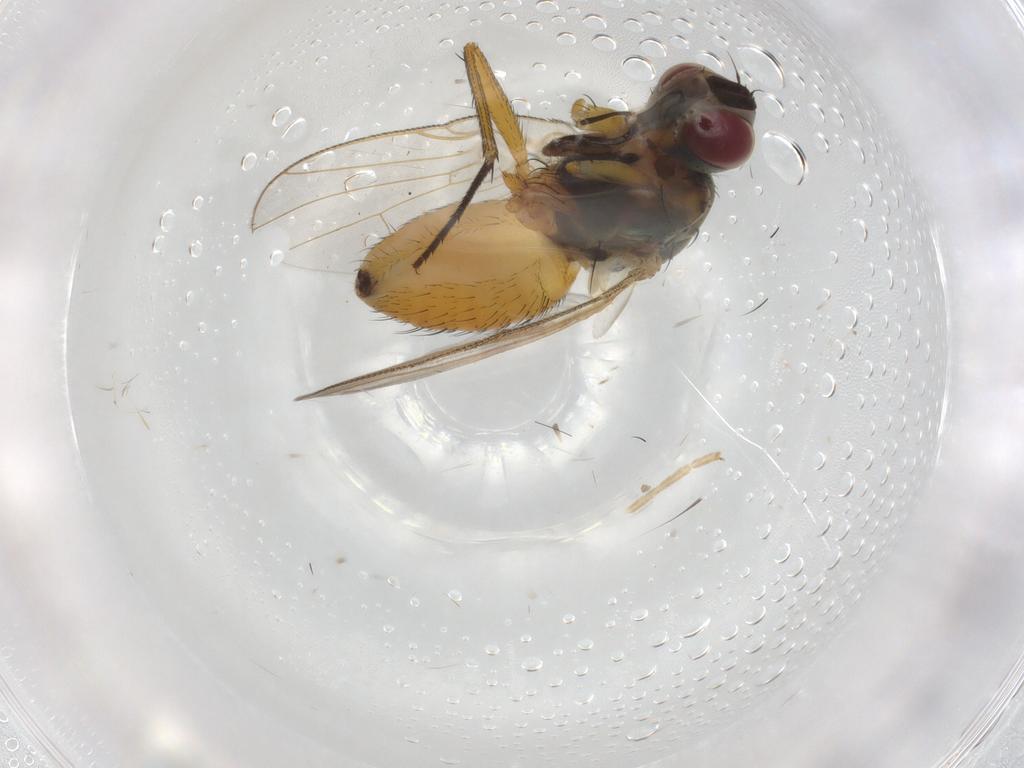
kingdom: Animalia
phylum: Arthropoda
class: Insecta
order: Diptera
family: Muscidae
